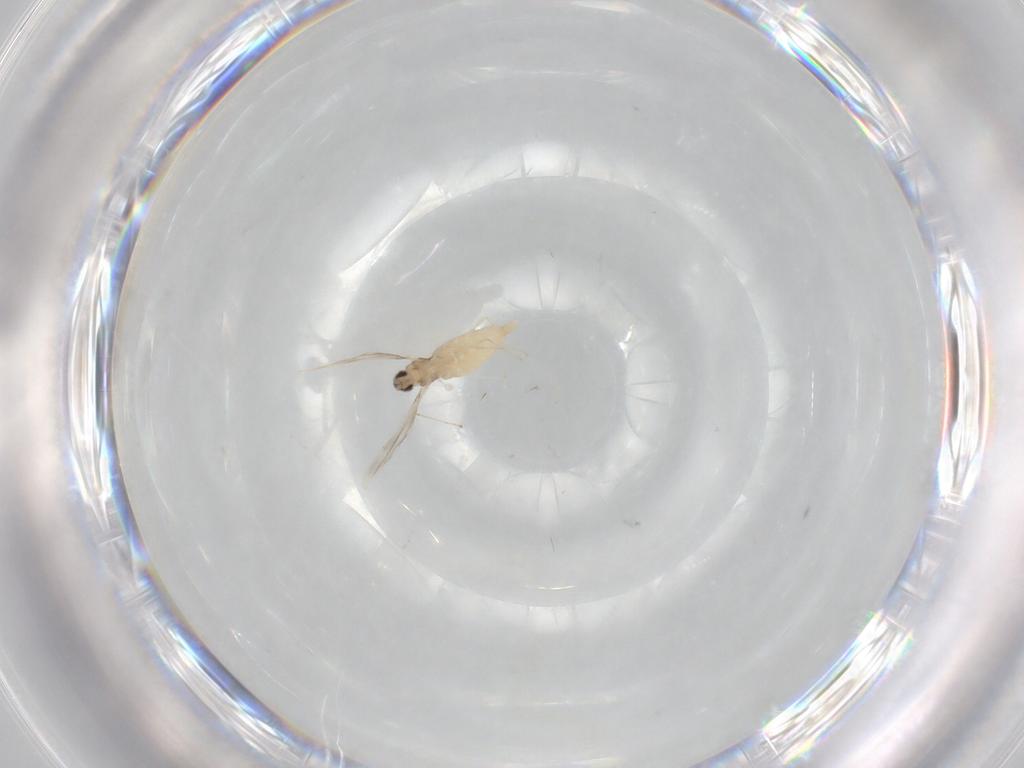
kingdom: Animalia
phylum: Arthropoda
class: Insecta
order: Diptera
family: Cecidomyiidae
